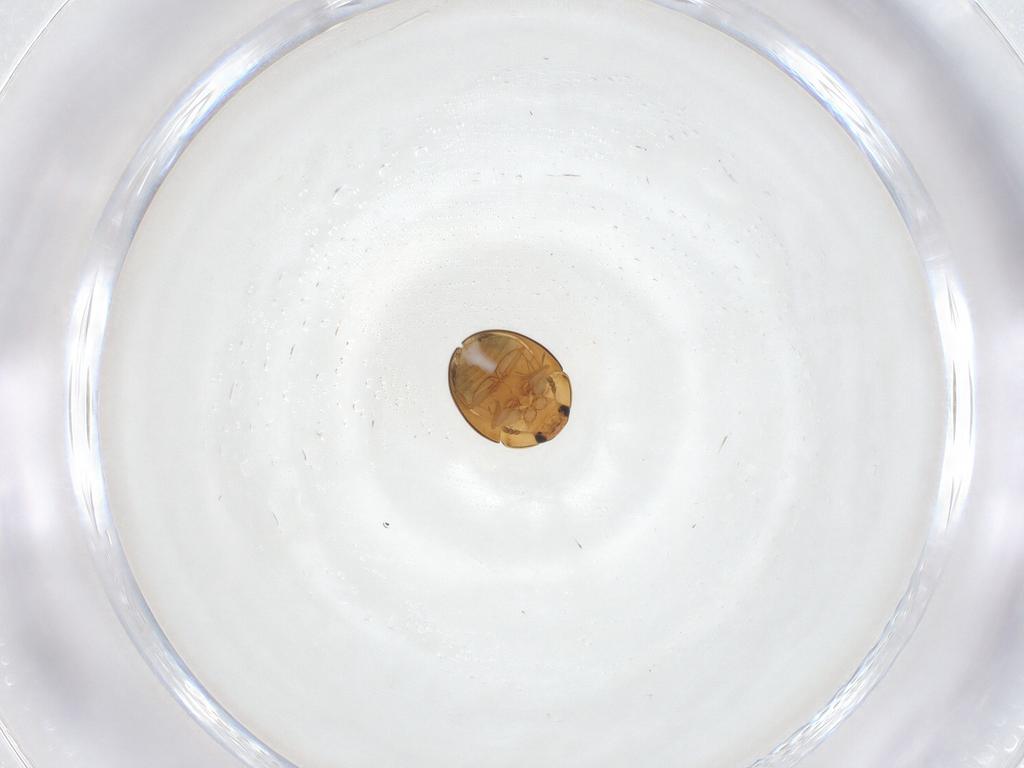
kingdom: Animalia
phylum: Arthropoda
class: Insecta
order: Coleoptera
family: Phalacridae
